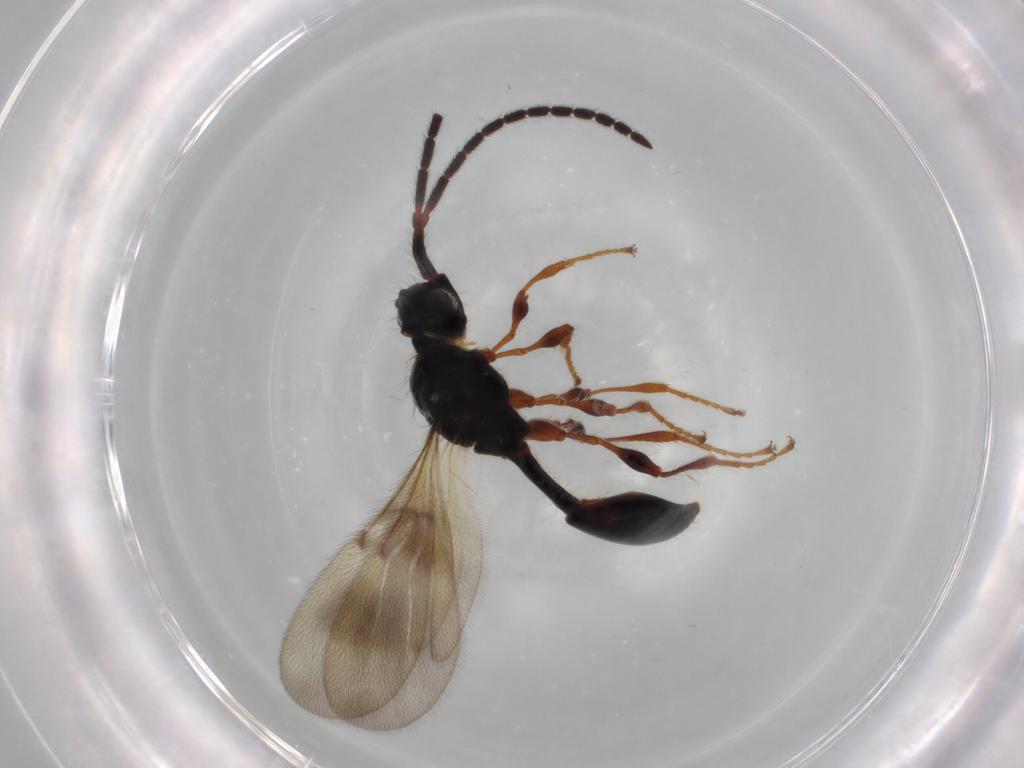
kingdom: Animalia
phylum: Arthropoda
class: Insecta
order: Hymenoptera
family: Diapriidae
